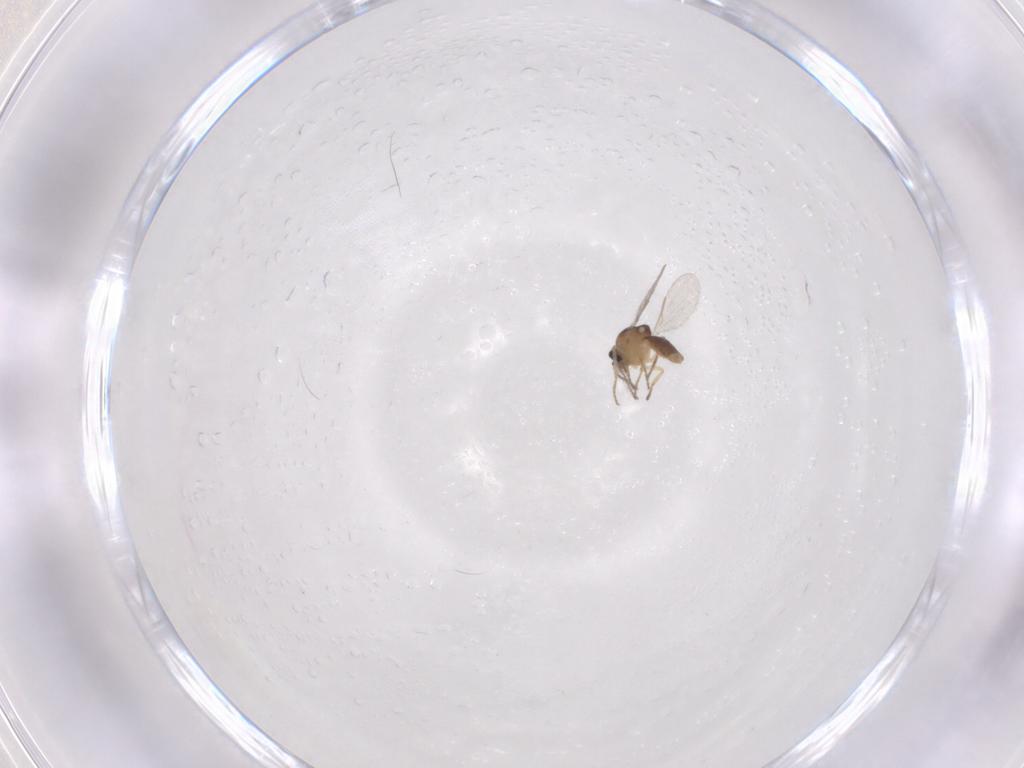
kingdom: Animalia
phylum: Arthropoda
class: Insecta
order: Diptera
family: Ceratopogonidae
